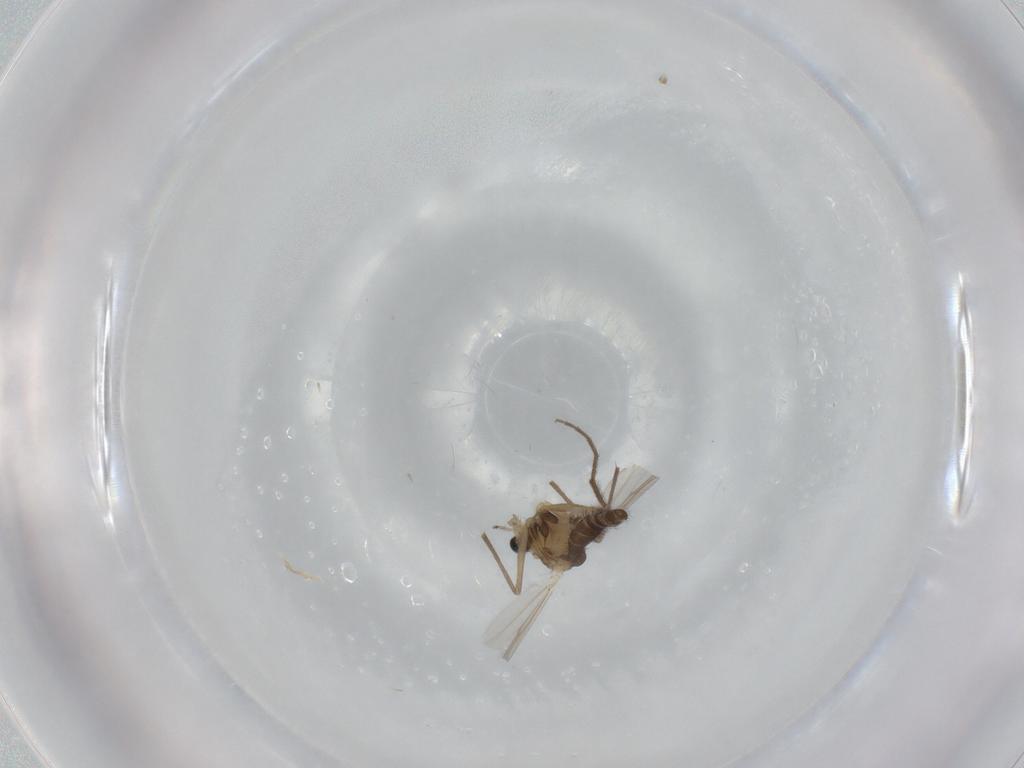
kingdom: Animalia
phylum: Arthropoda
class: Insecta
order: Diptera
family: Chironomidae
